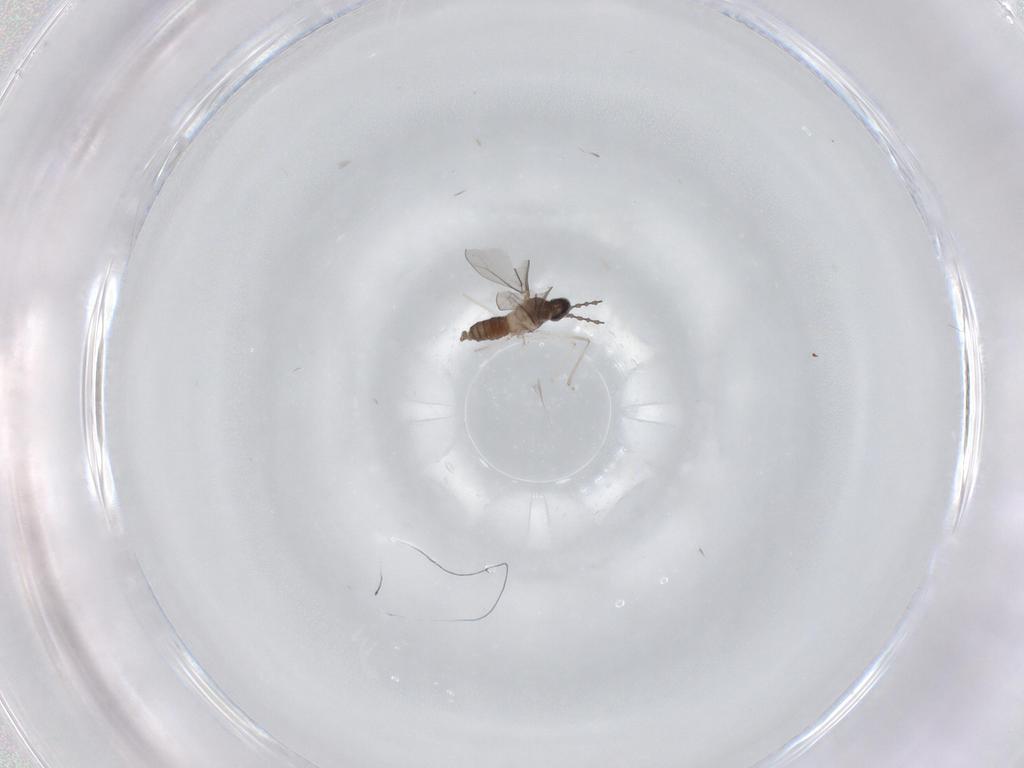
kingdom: Animalia
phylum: Arthropoda
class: Insecta
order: Diptera
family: Cecidomyiidae
